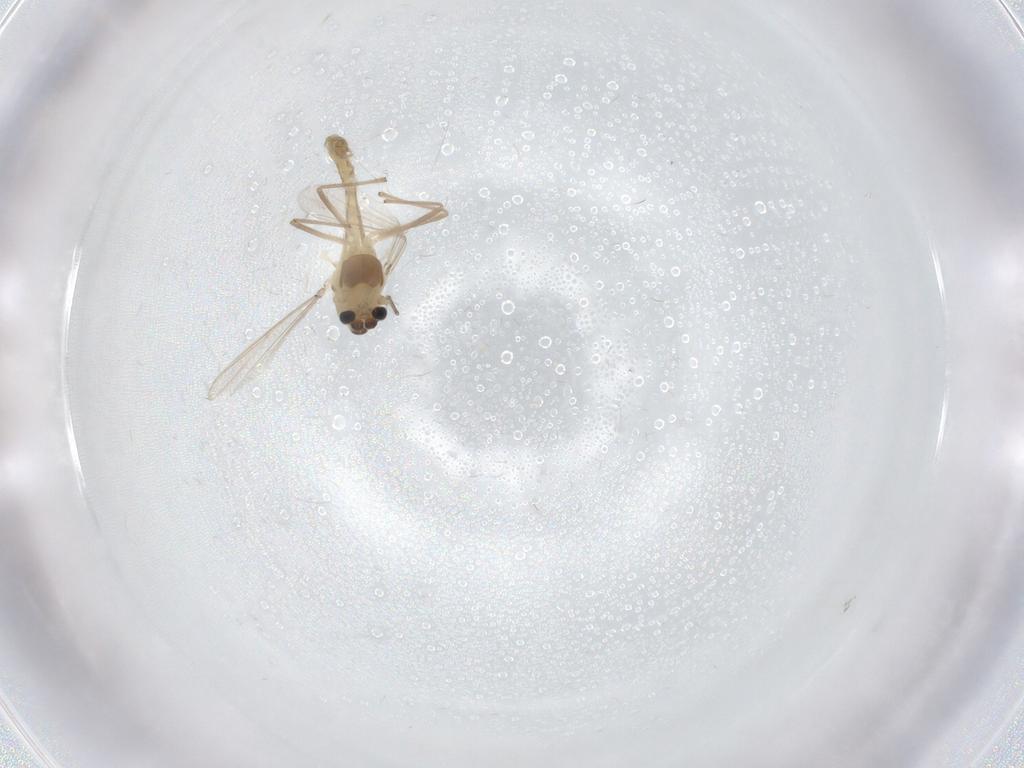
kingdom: Animalia
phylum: Arthropoda
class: Insecta
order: Diptera
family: Chironomidae
